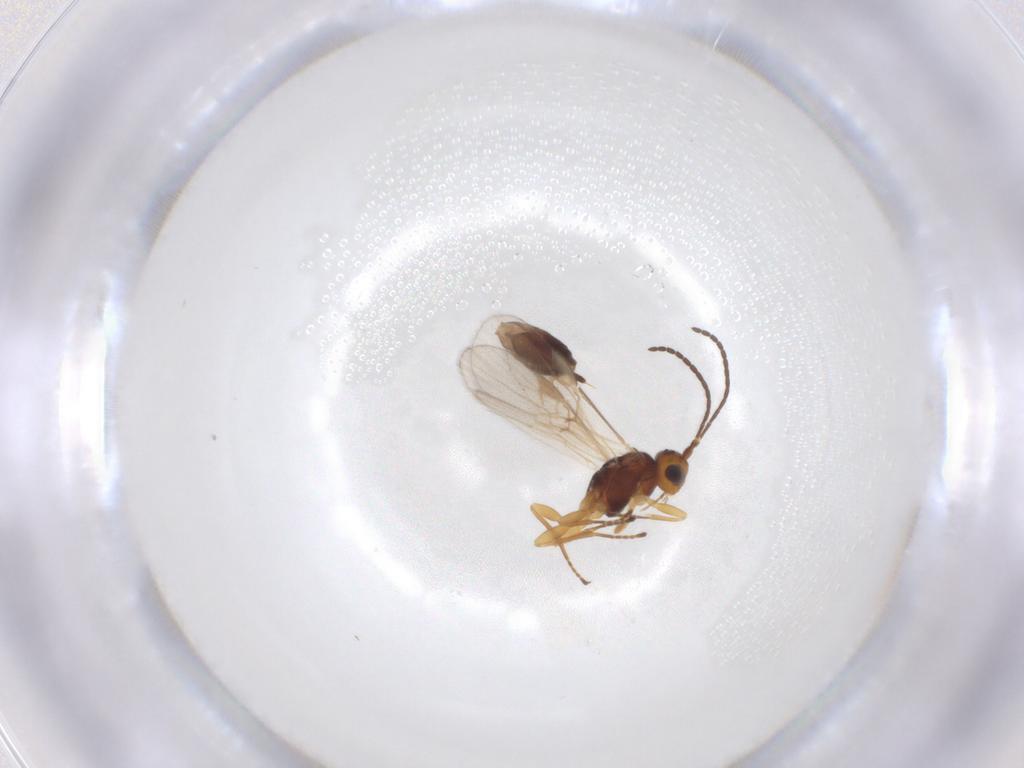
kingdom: Animalia
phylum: Arthropoda
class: Insecta
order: Hymenoptera
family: Braconidae
